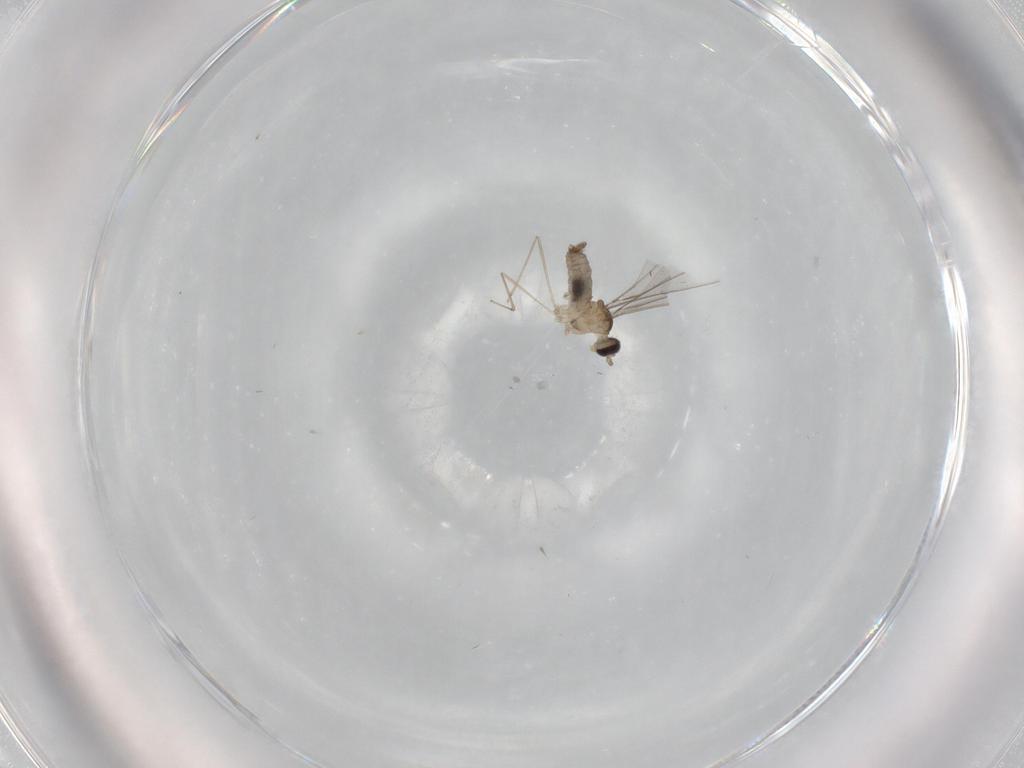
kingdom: Animalia
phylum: Arthropoda
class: Insecta
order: Diptera
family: Cecidomyiidae
